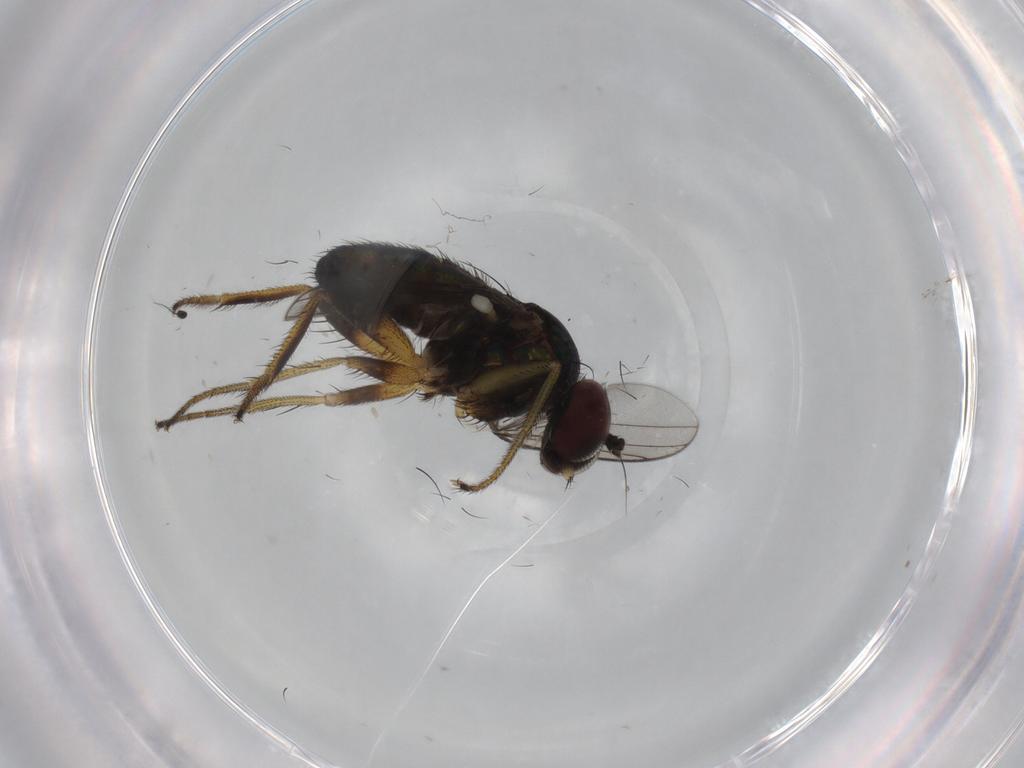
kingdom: Animalia
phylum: Arthropoda
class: Insecta
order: Diptera
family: Dolichopodidae
